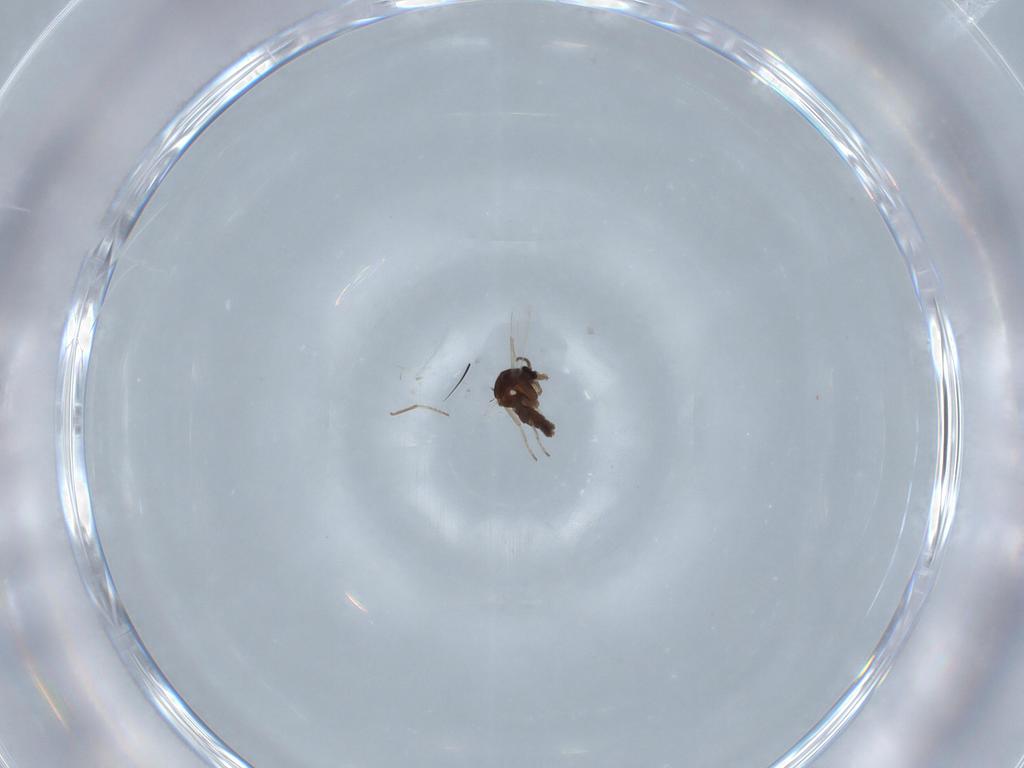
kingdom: Animalia
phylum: Arthropoda
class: Insecta
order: Diptera
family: Ceratopogonidae
